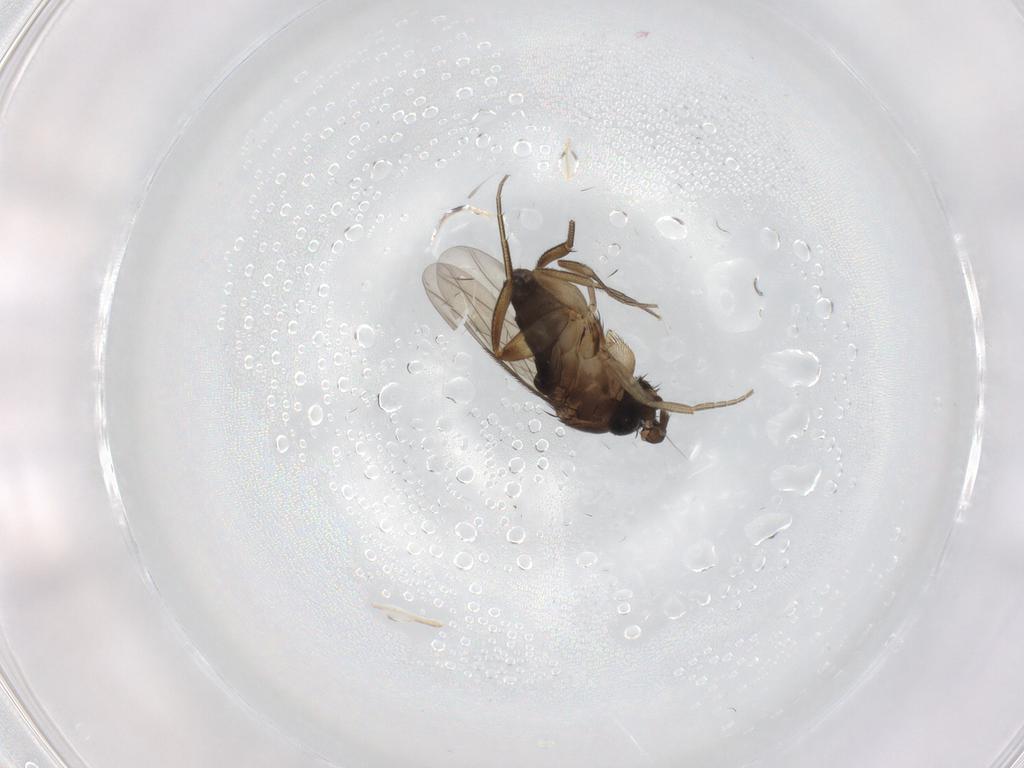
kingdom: Animalia
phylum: Arthropoda
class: Insecta
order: Diptera
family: Phoridae
